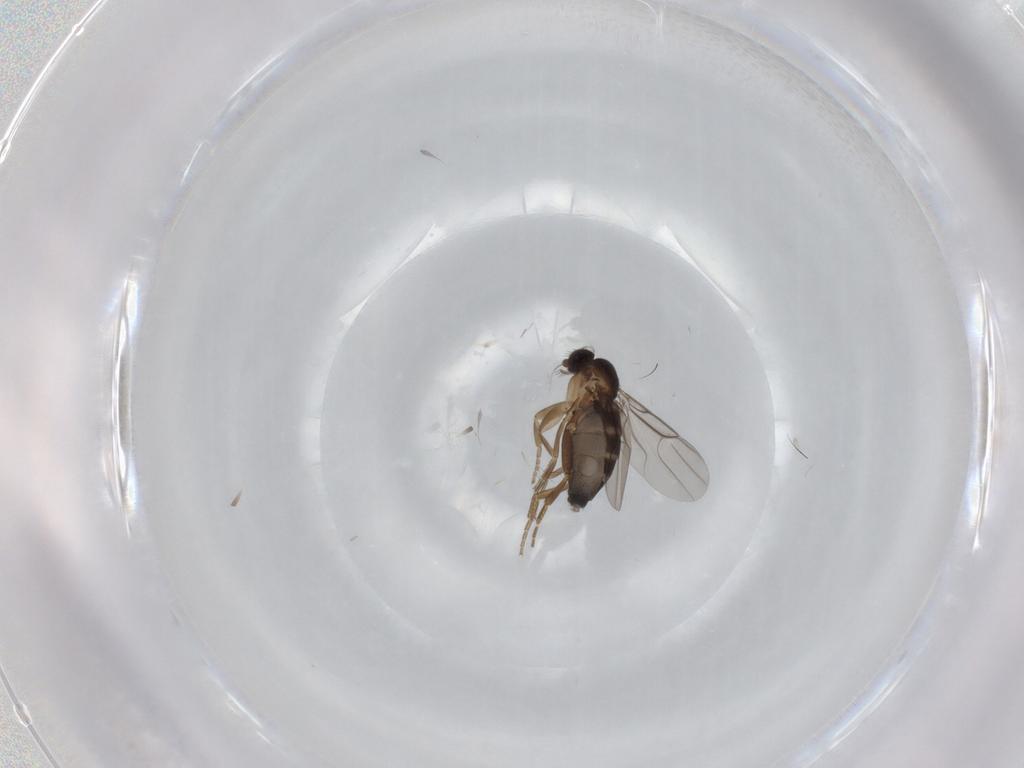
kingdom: Animalia
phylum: Arthropoda
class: Insecta
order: Diptera
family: Phoridae
